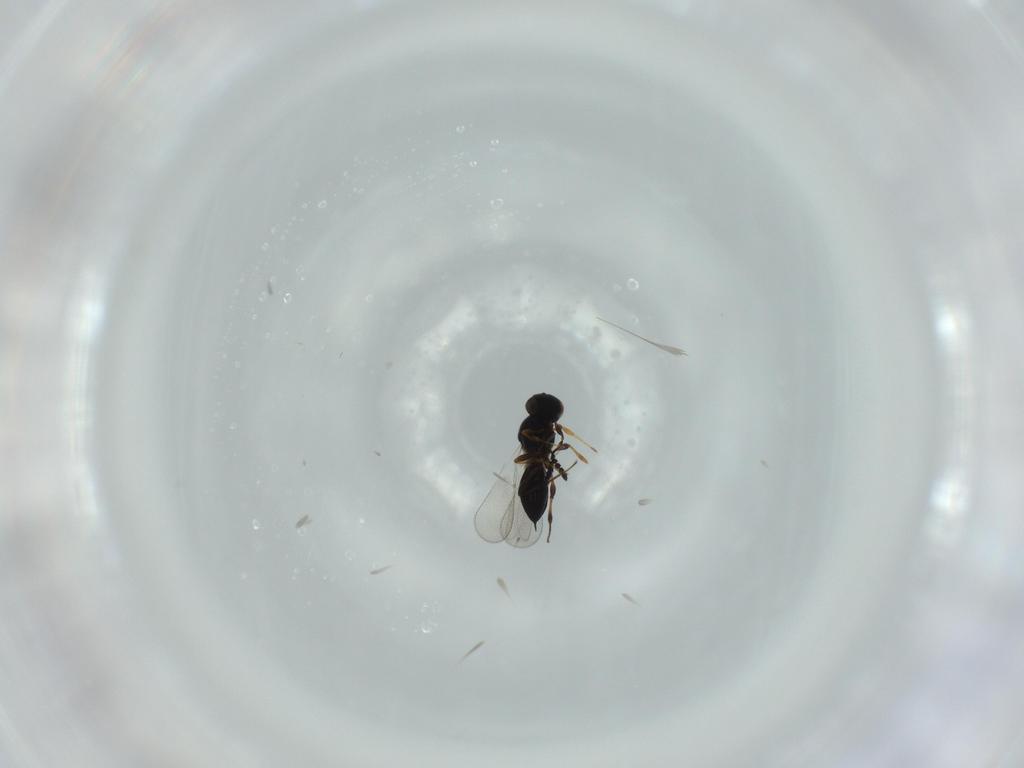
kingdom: Animalia
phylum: Arthropoda
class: Insecta
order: Hymenoptera
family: Platygastridae
